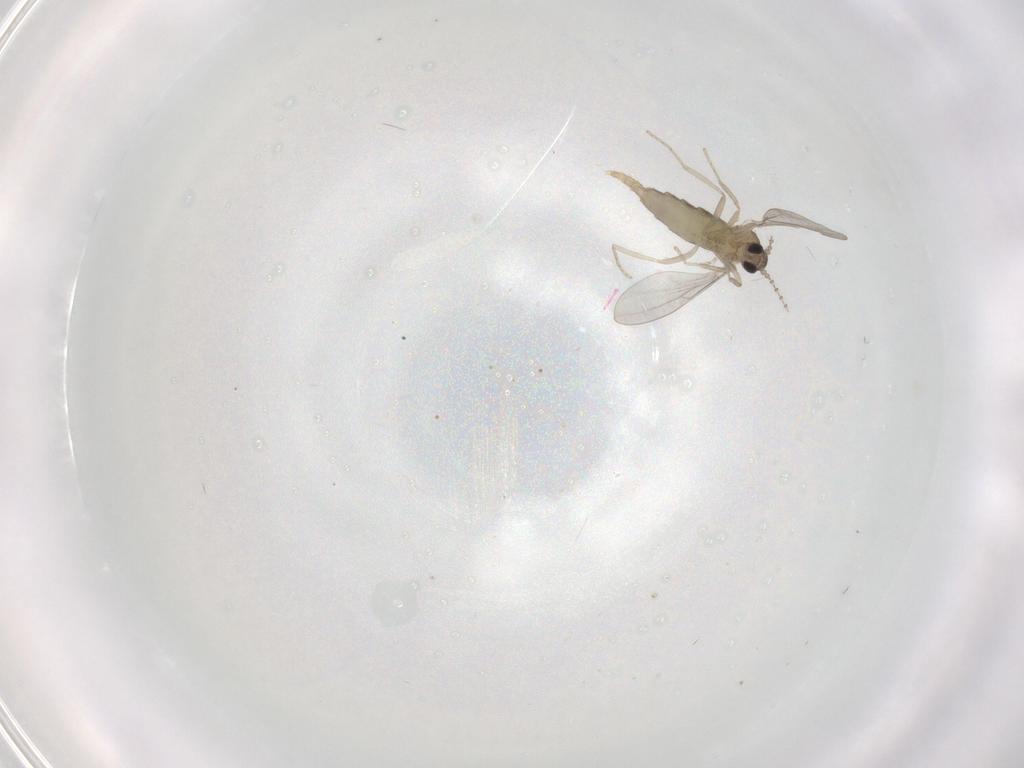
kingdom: Animalia
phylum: Arthropoda
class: Insecta
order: Diptera
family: Cecidomyiidae
